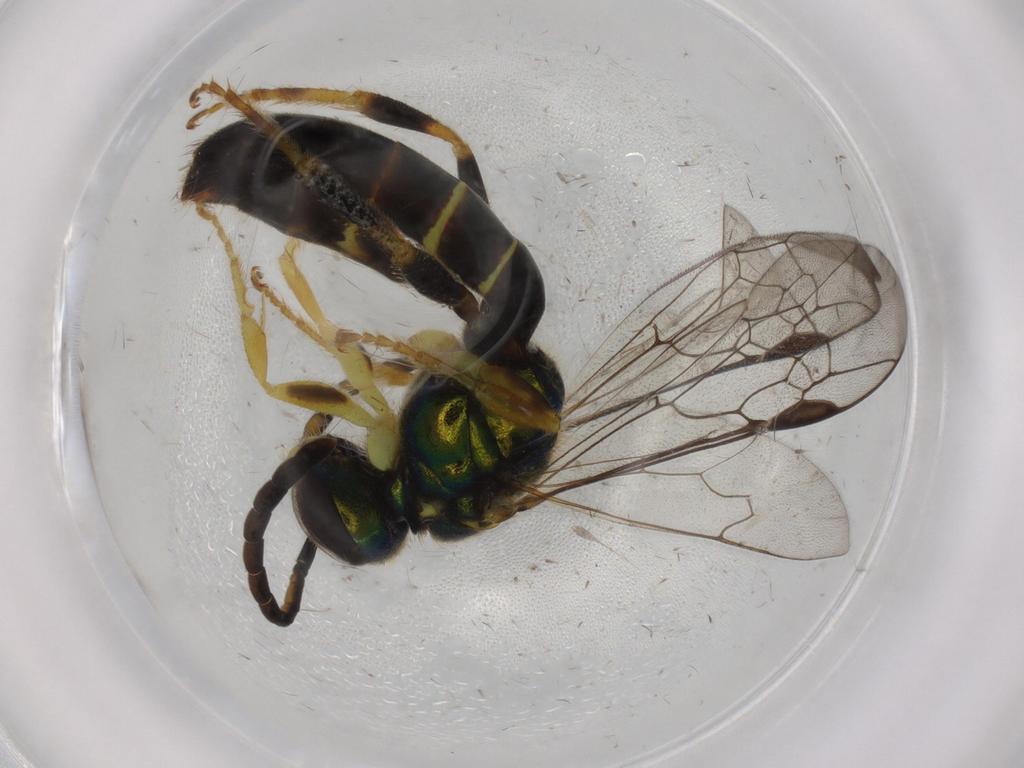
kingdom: Animalia
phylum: Arthropoda
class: Insecta
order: Hymenoptera
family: Halictidae
